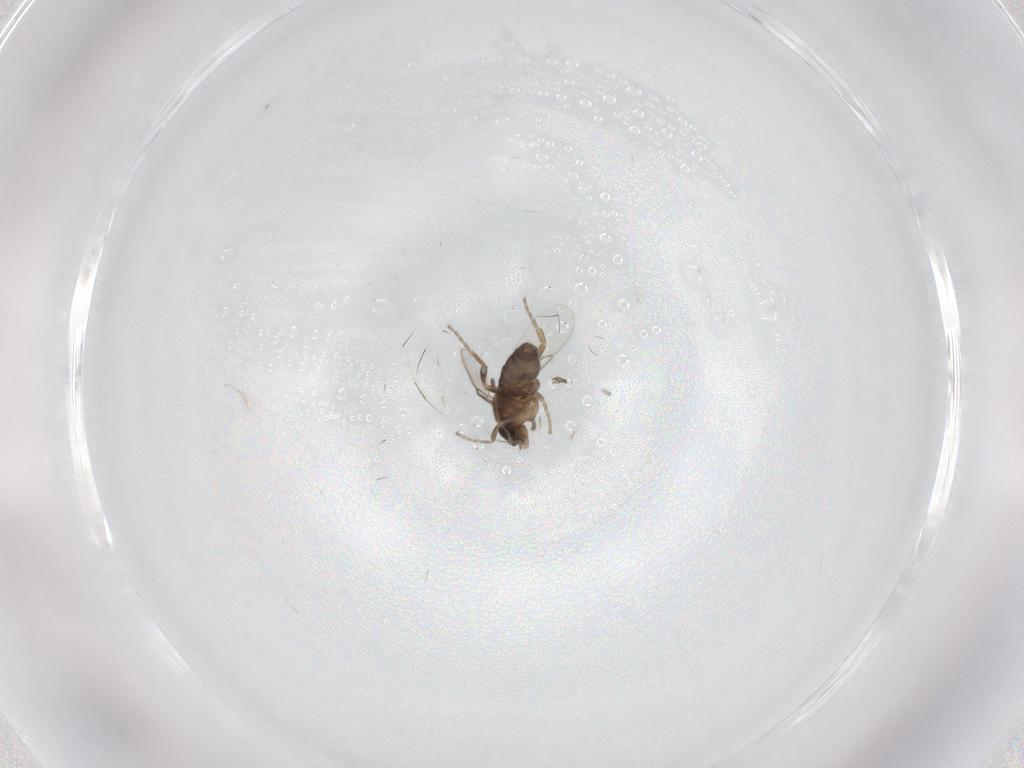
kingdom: Animalia
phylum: Arthropoda
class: Insecta
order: Diptera
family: Phoridae
